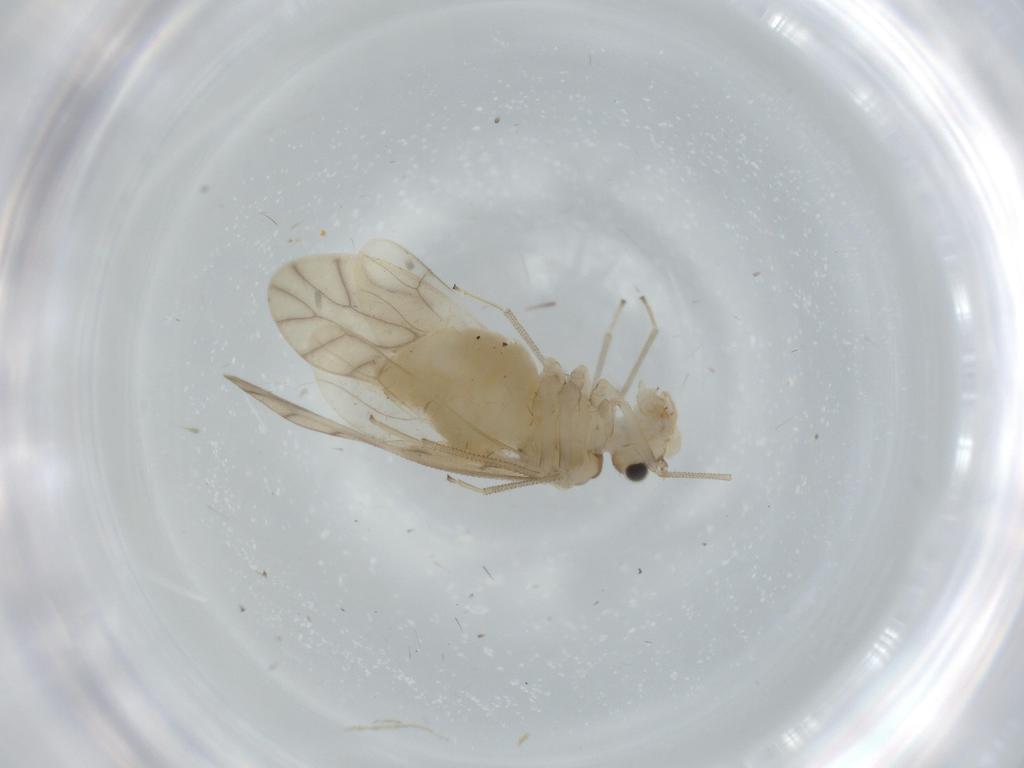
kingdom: Animalia
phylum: Arthropoda
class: Insecta
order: Psocodea
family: Caeciliusidae
